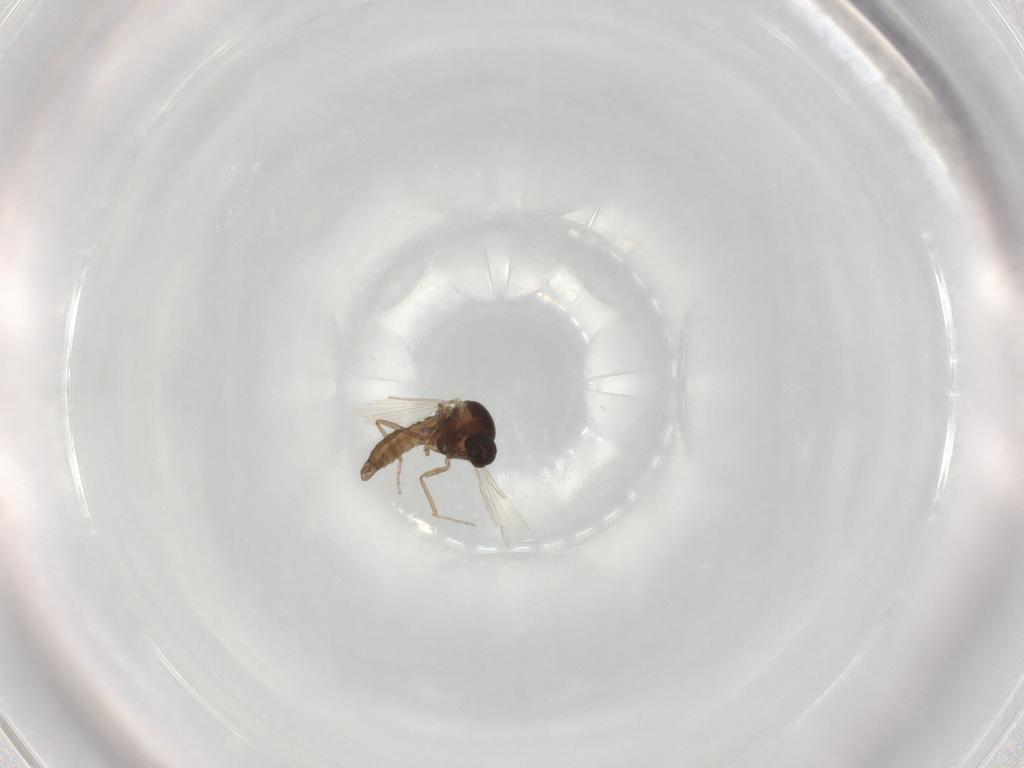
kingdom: Animalia
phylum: Arthropoda
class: Insecta
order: Diptera
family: Ceratopogonidae
